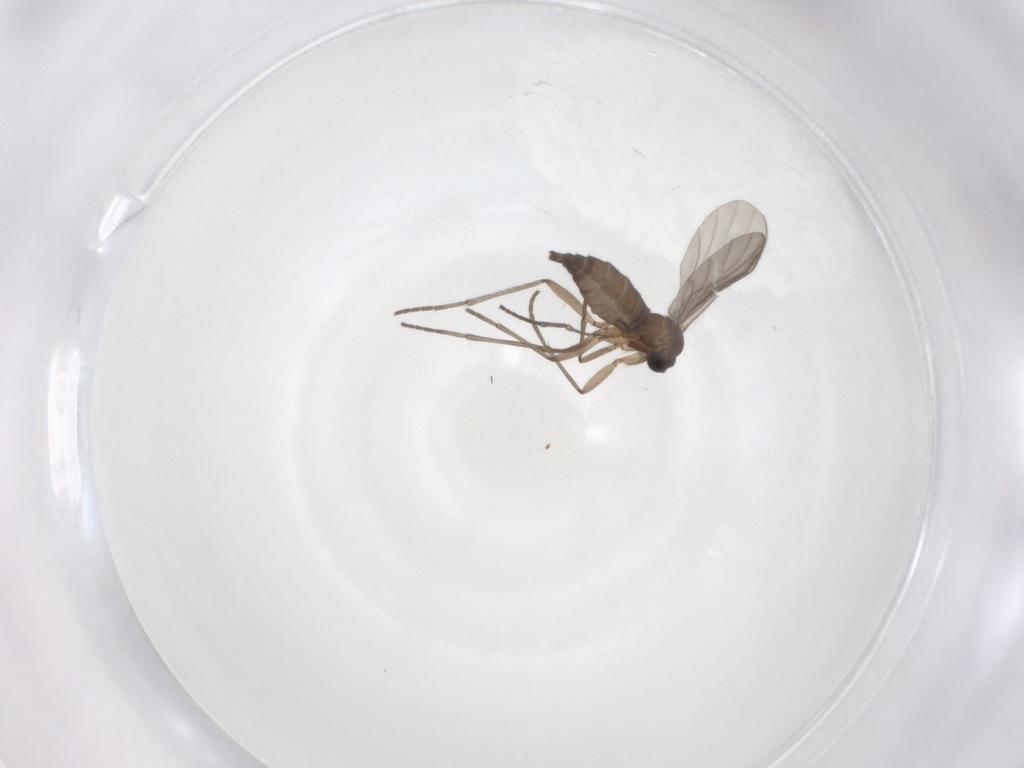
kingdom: Animalia
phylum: Arthropoda
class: Insecta
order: Diptera
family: Sciaridae
